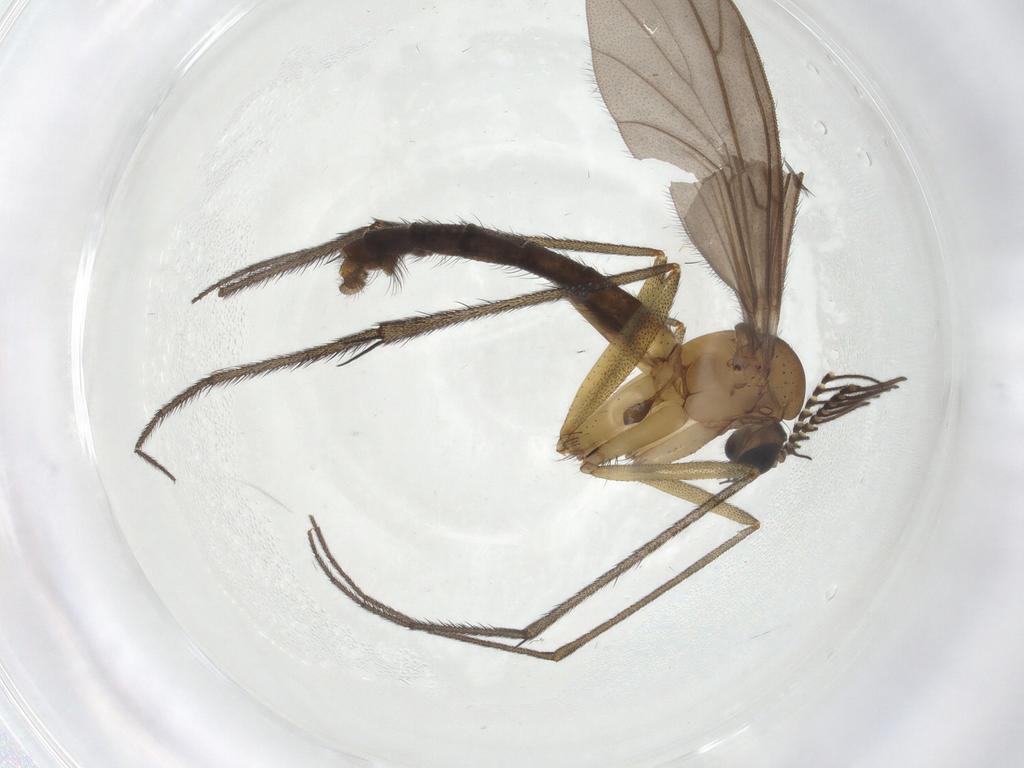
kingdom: Animalia
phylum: Arthropoda
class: Insecta
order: Diptera
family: Ditomyiidae
